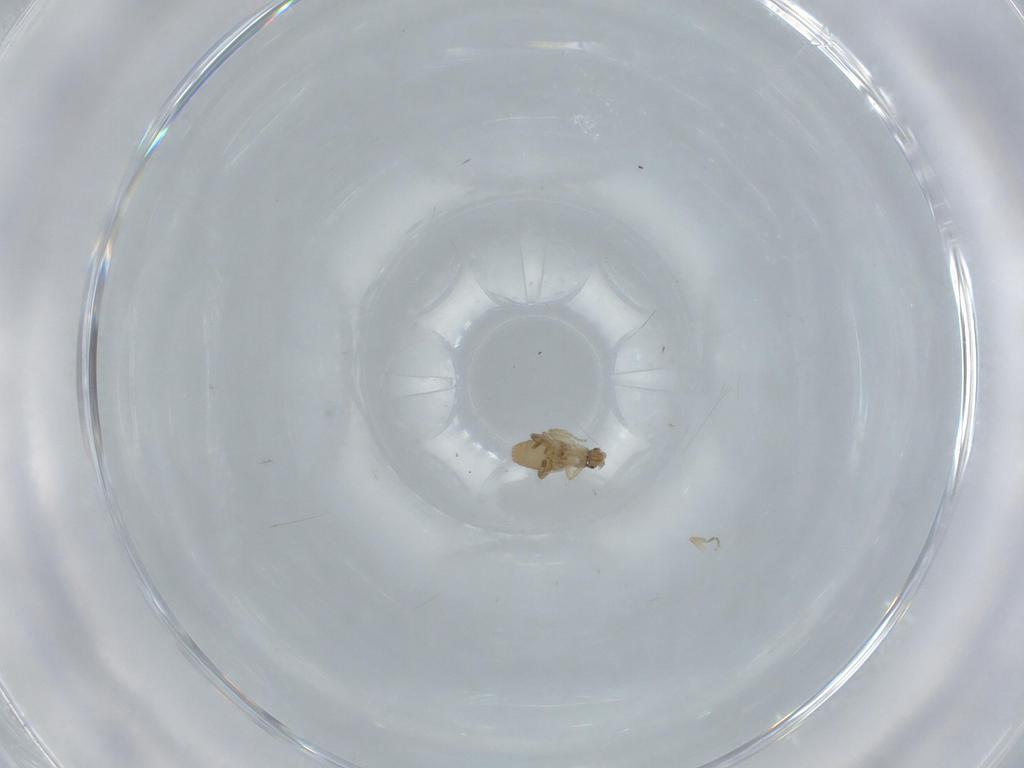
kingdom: Animalia
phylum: Arthropoda
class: Insecta
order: Diptera
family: Phoridae
